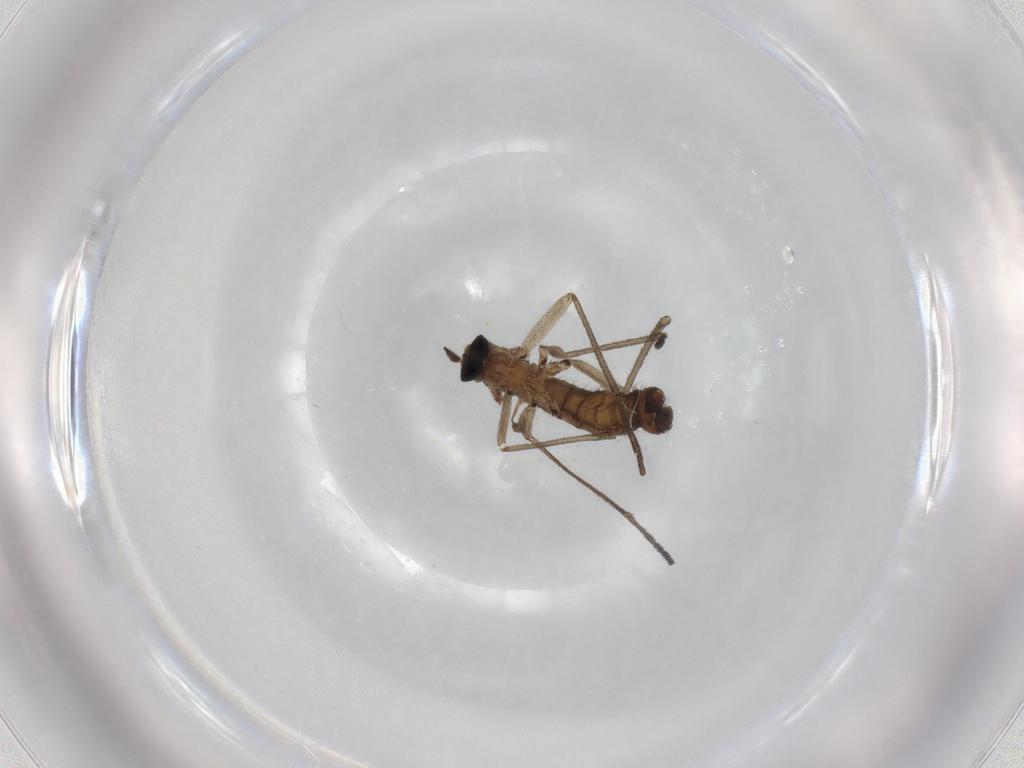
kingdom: Animalia
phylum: Arthropoda
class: Insecta
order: Diptera
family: Sciaridae
